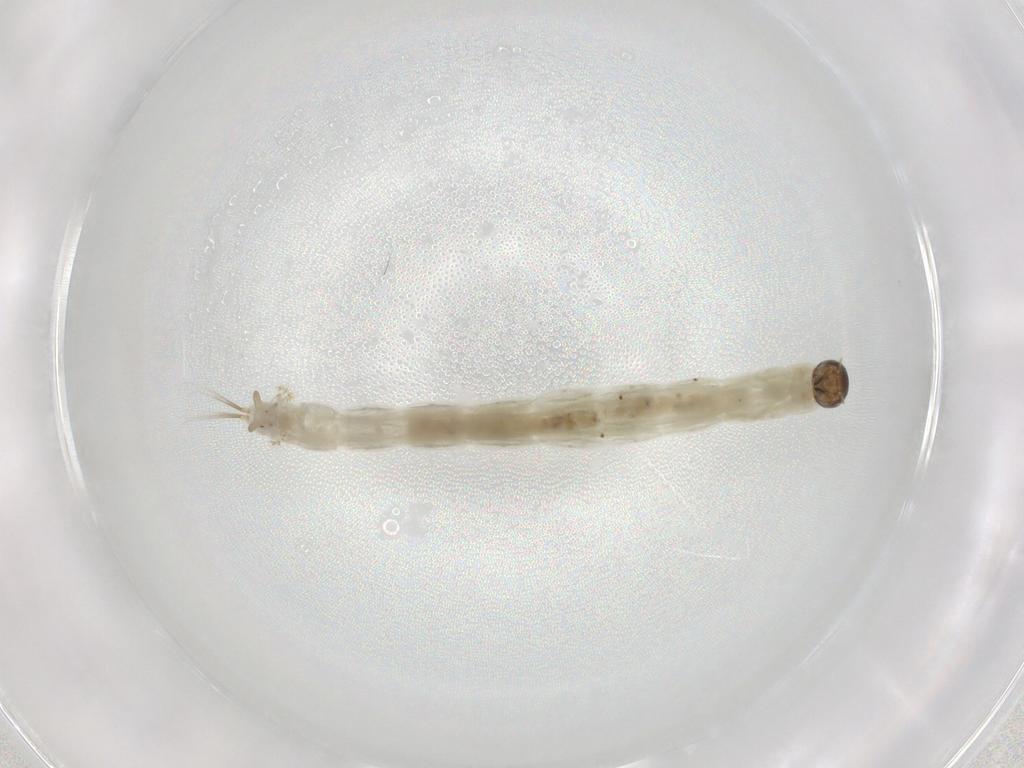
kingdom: Animalia
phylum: Arthropoda
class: Insecta
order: Diptera
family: Chironomidae
